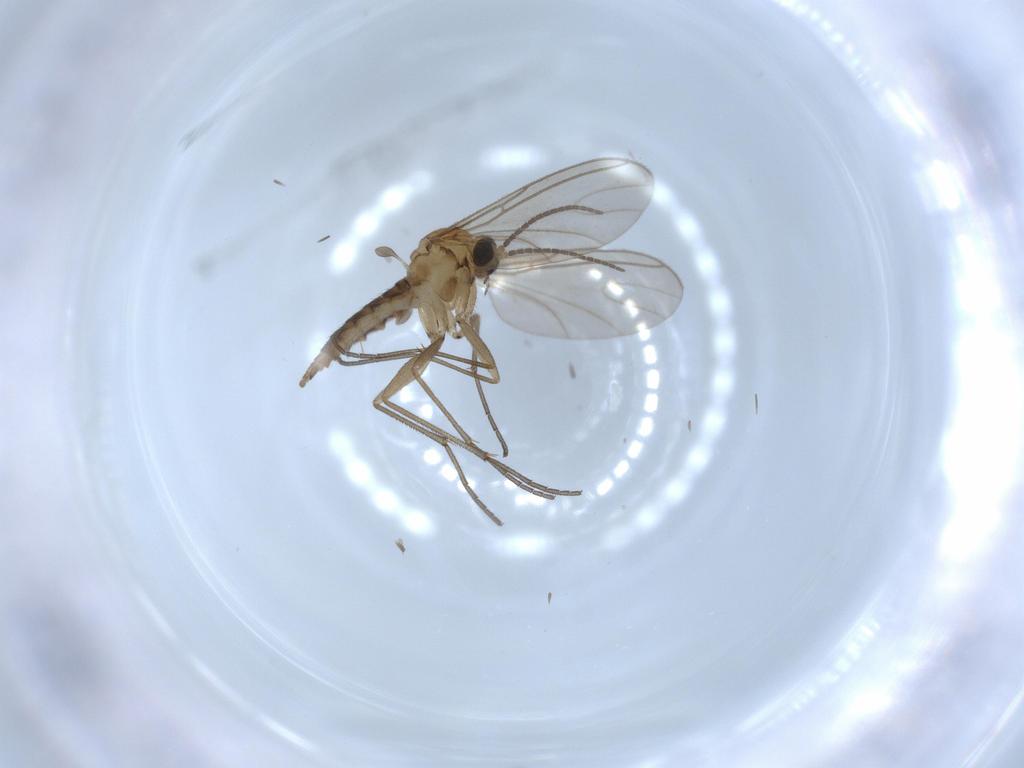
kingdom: Animalia
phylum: Arthropoda
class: Insecta
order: Diptera
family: Sciaridae
